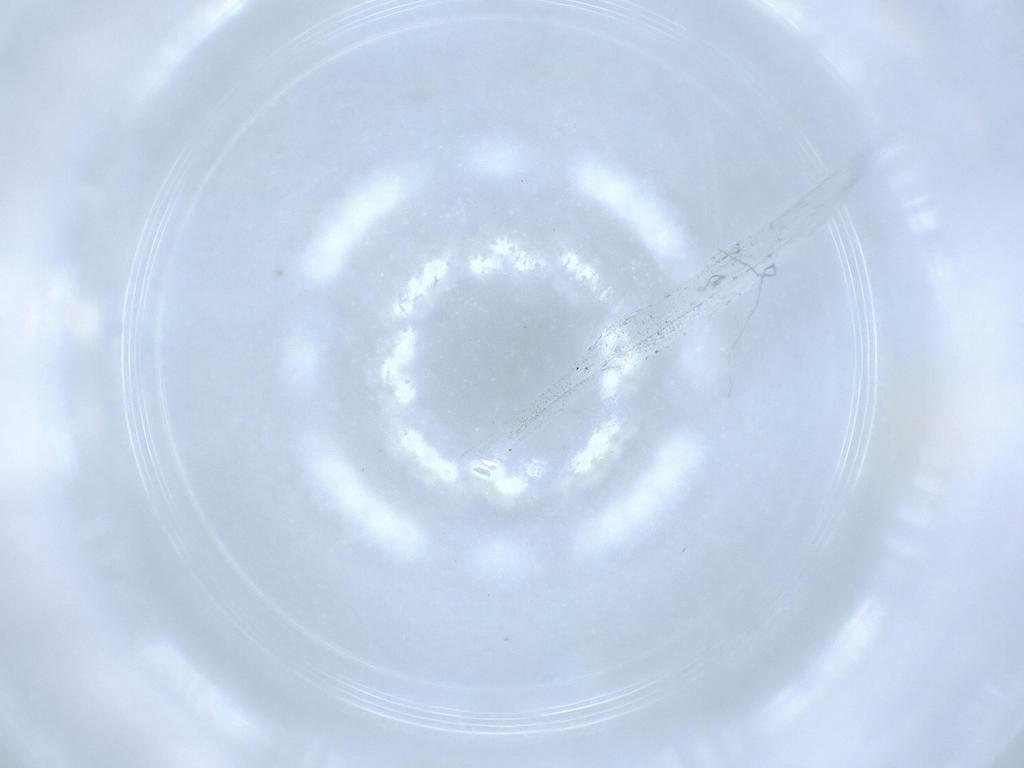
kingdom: Animalia
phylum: Arthropoda
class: Insecta
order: Psocodea
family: Amphipsocidae
